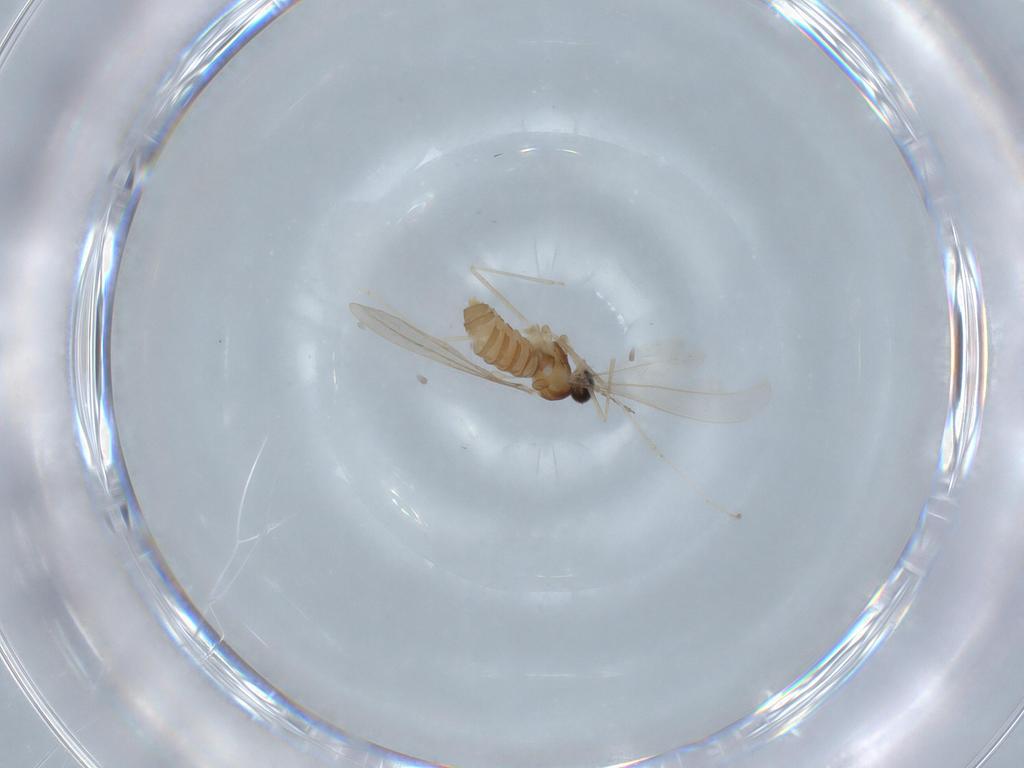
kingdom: Animalia
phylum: Arthropoda
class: Insecta
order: Diptera
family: Cecidomyiidae
